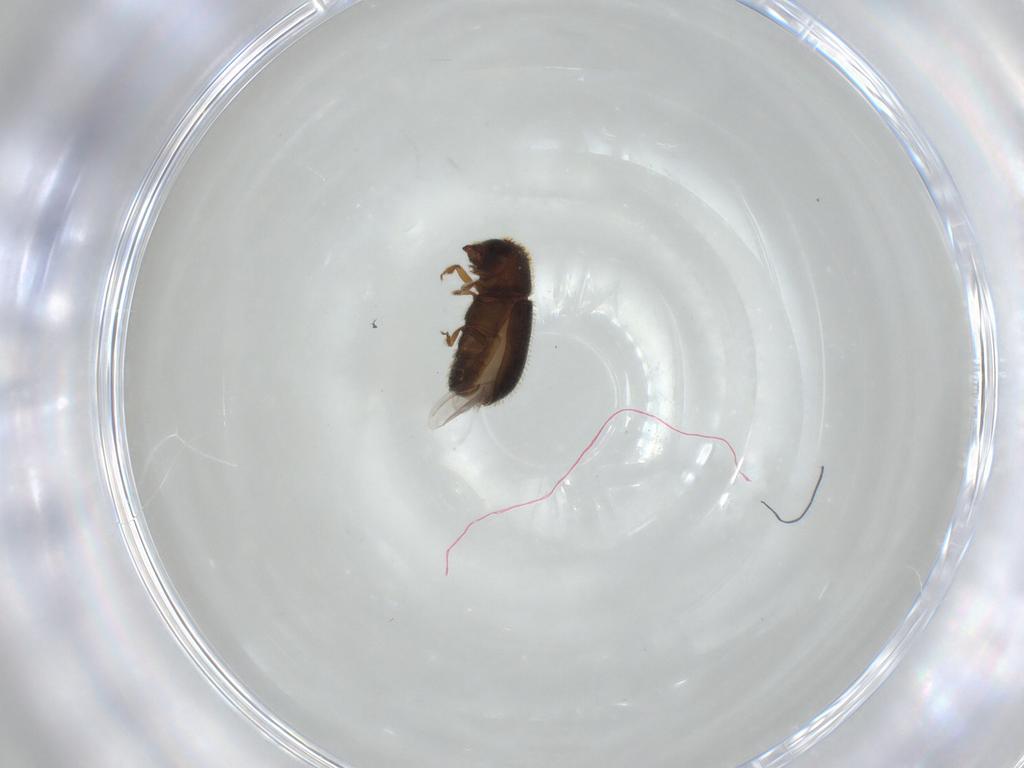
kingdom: Animalia
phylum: Arthropoda
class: Insecta
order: Coleoptera
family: Curculionidae
